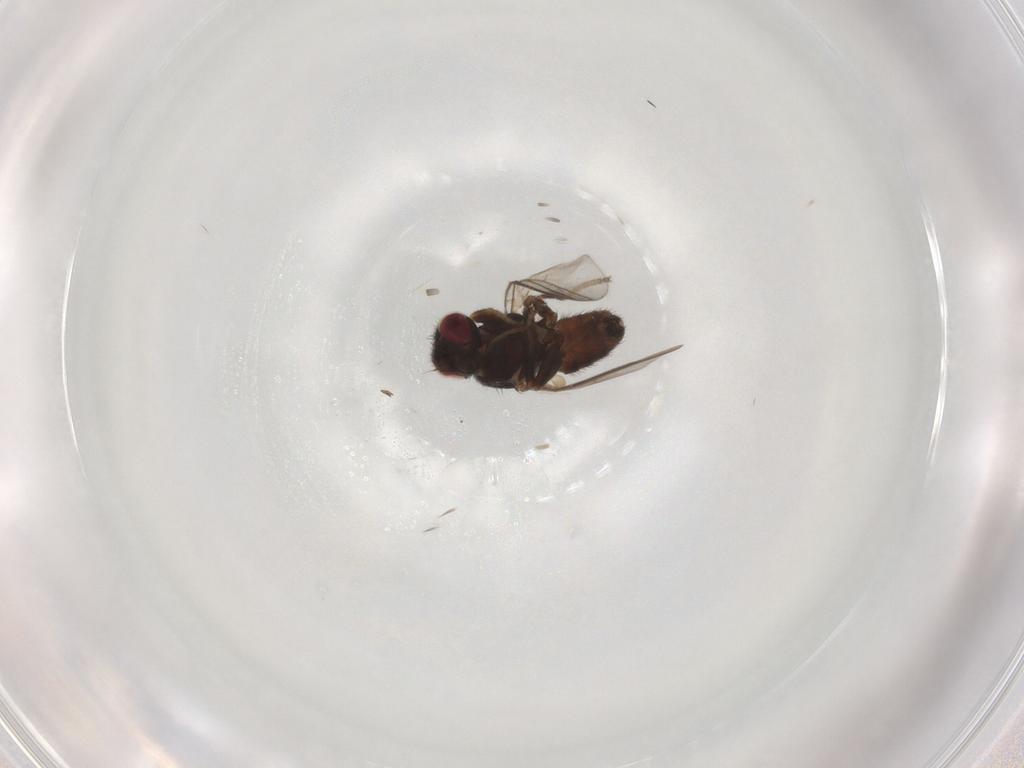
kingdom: Animalia
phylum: Arthropoda
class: Insecta
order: Diptera
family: Chloropidae
